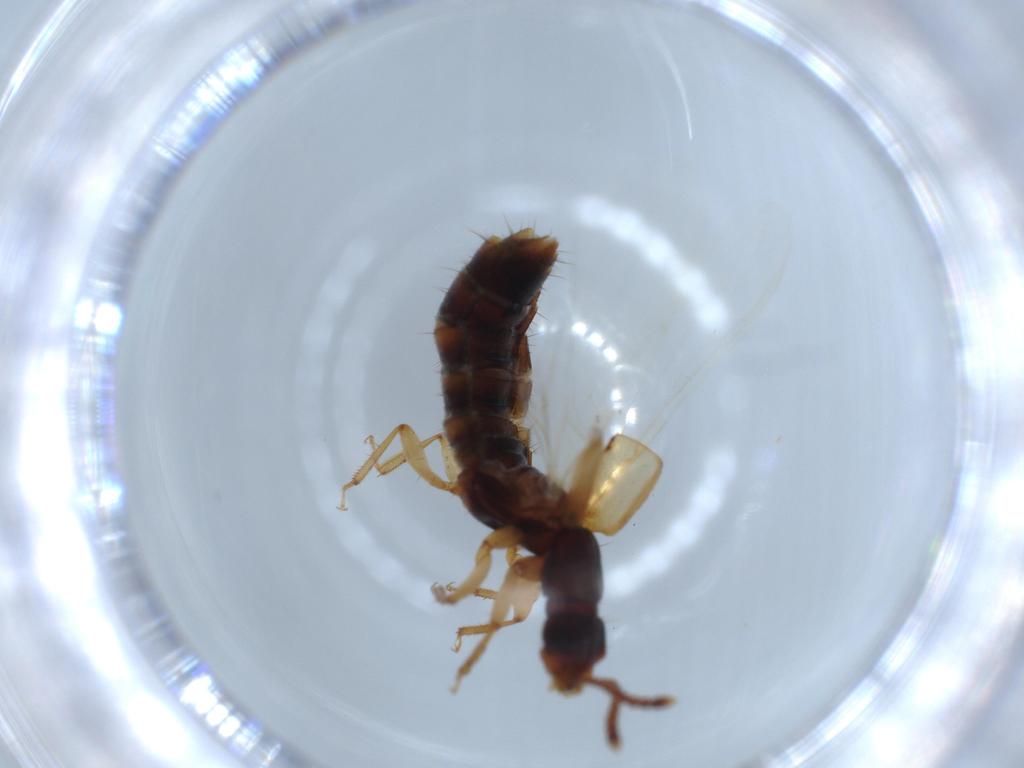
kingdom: Animalia
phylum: Arthropoda
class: Insecta
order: Coleoptera
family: Staphylinidae
